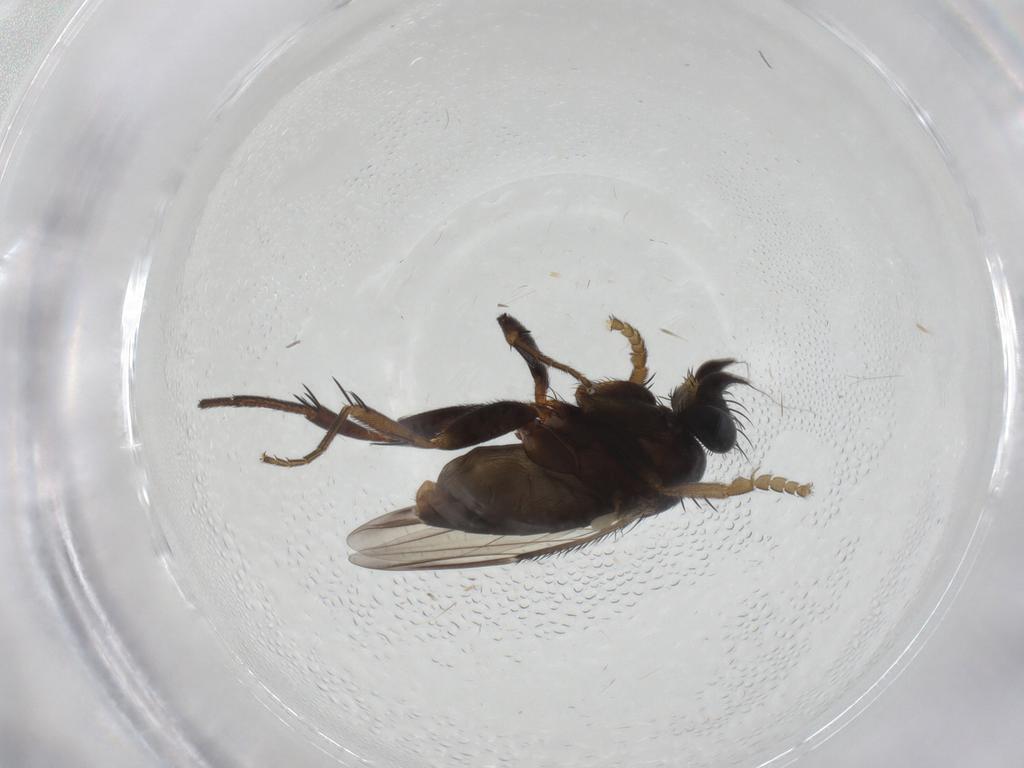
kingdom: Animalia
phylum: Arthropoda
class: Insecta
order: Diptera
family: Phoridae
